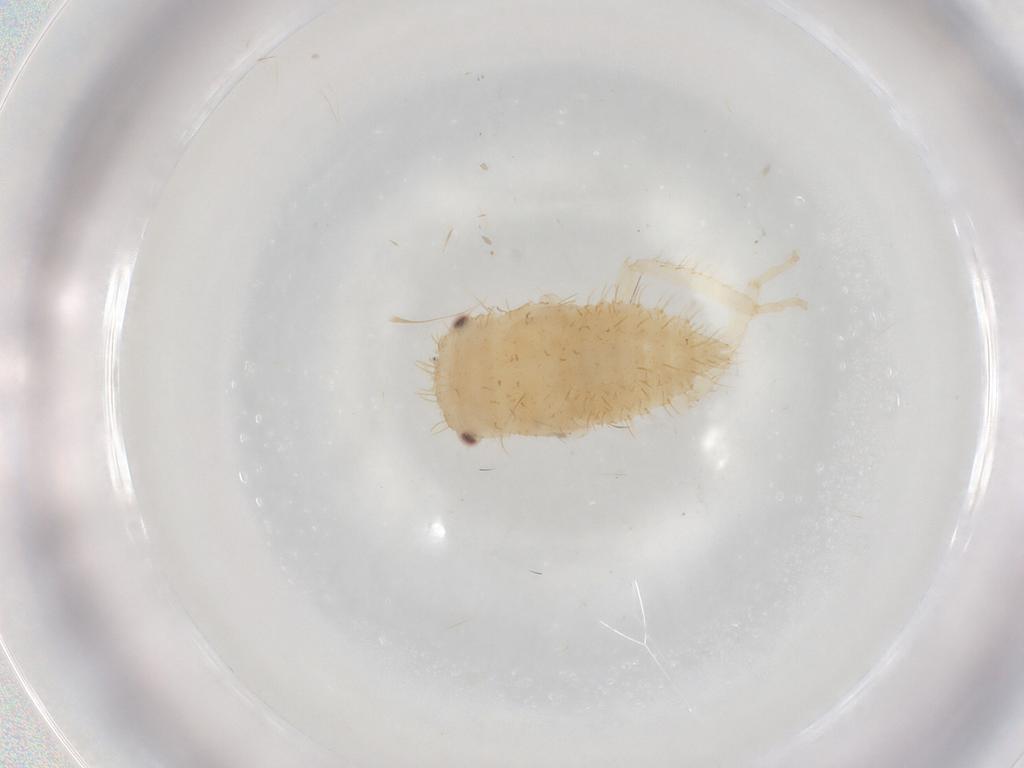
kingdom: Animalia
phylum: Arthropoda
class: Insecta
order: Hemiptera
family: Cicadellidae
